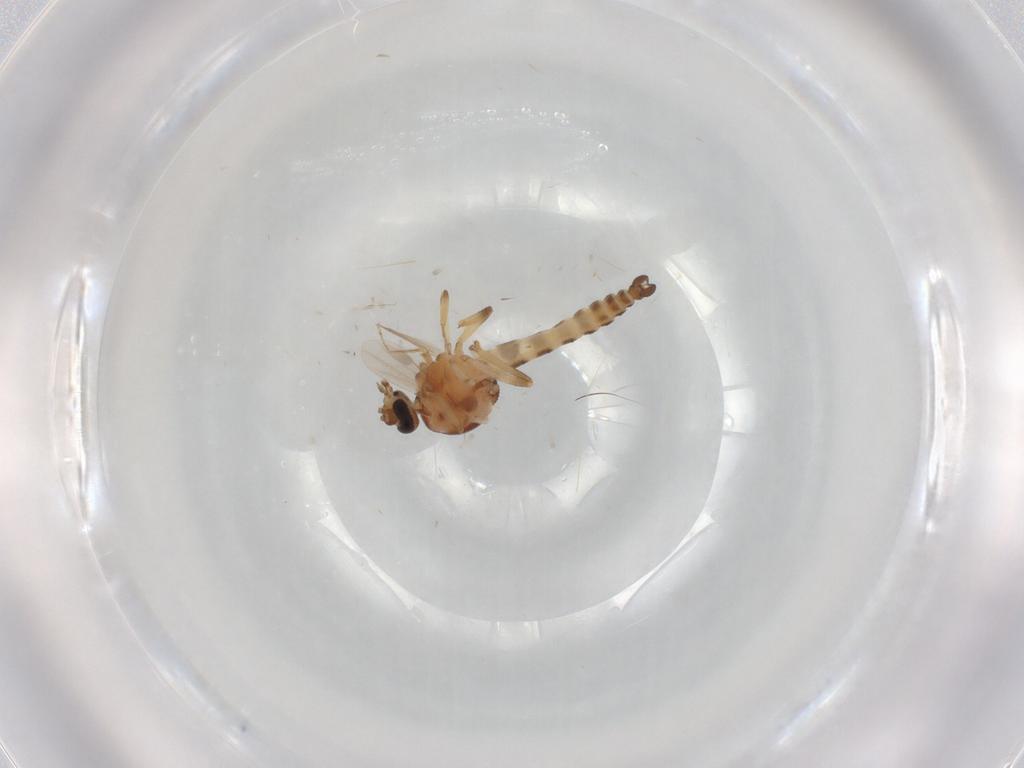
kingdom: Animalia
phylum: Arthropoda
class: Insecta
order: Diptera
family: Ceratopogonidae
